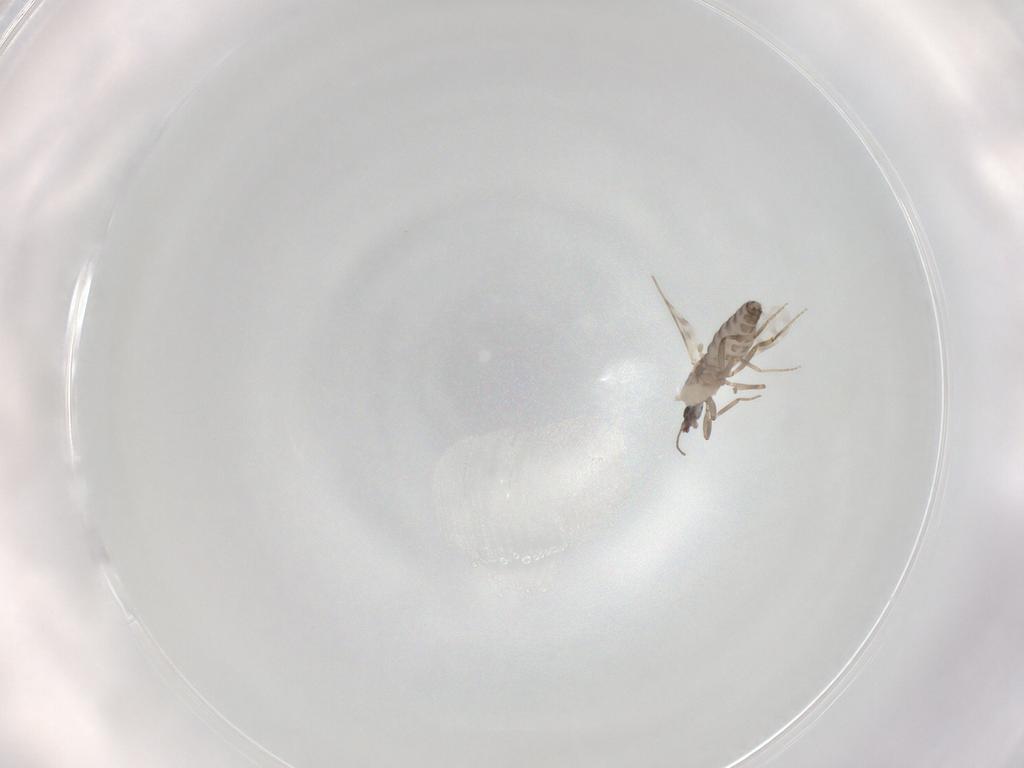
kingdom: Animalia
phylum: Arthropoda
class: Insecta
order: Diptera
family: Ceratopogonidae
